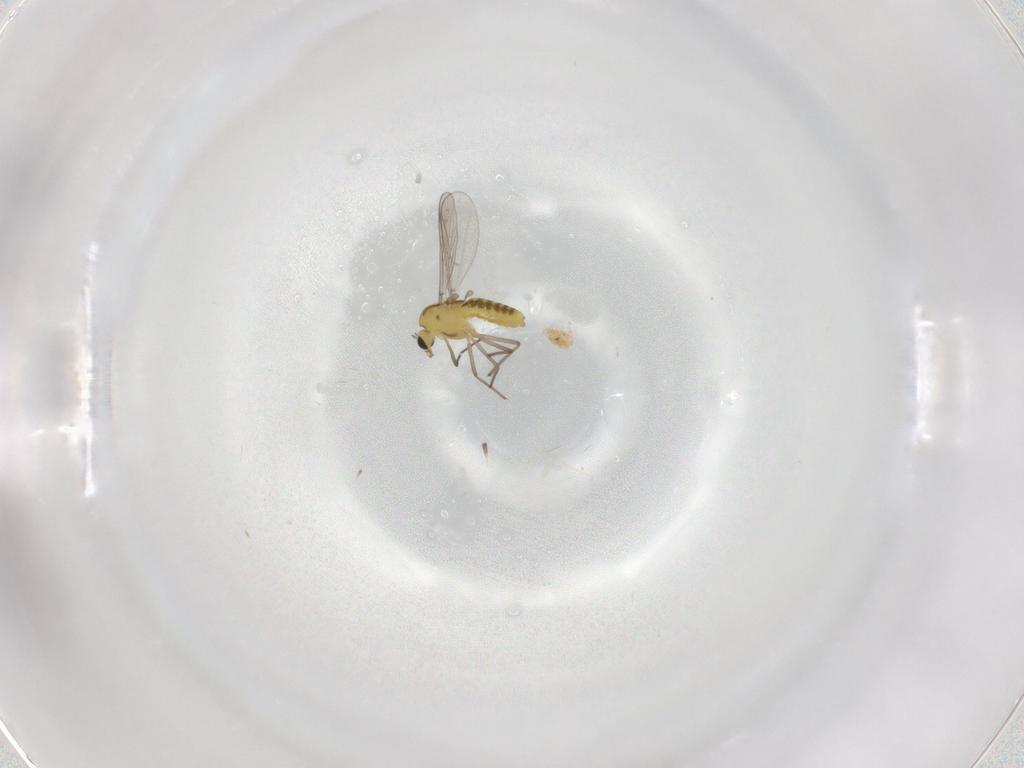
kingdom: Animalia
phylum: Arthropoda
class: Insecta
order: Diptera
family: Chironomidae
